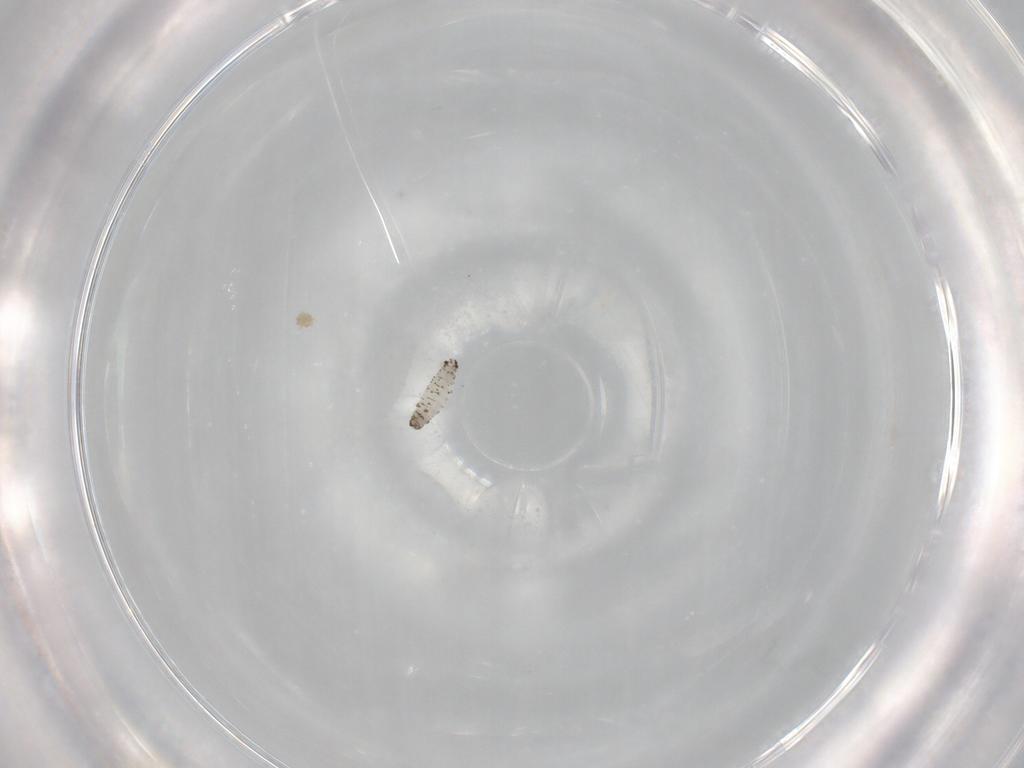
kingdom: Animalia
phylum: Arthropoda
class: Insecta
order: Diptera
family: Drosophilidae
